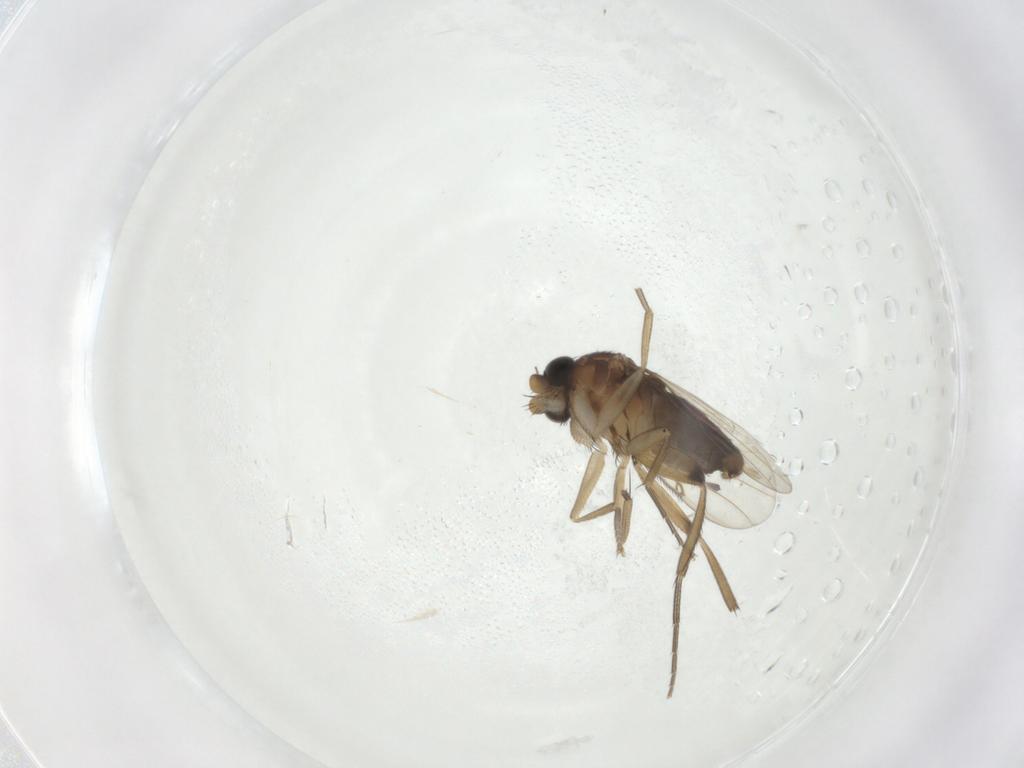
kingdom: Animalia
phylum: Arthropoda
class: Insecta
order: Diptera
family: Phoridae
